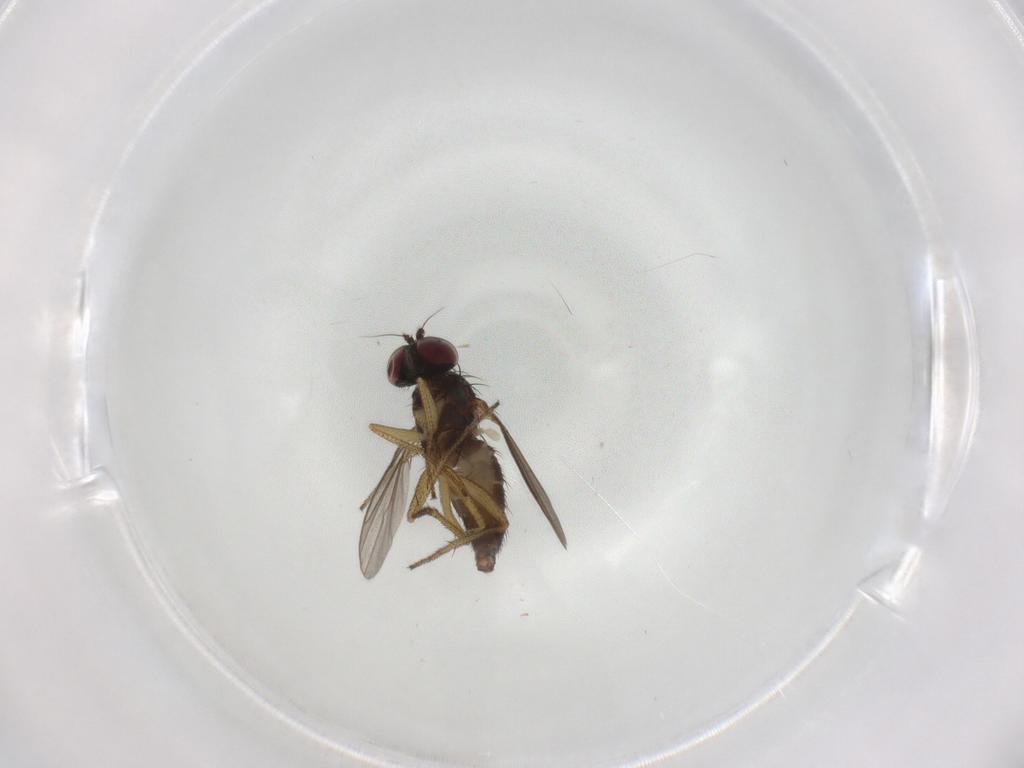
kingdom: Animalia
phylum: Arthropoda
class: Insecta
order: Diptera
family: Dolichopodidae
